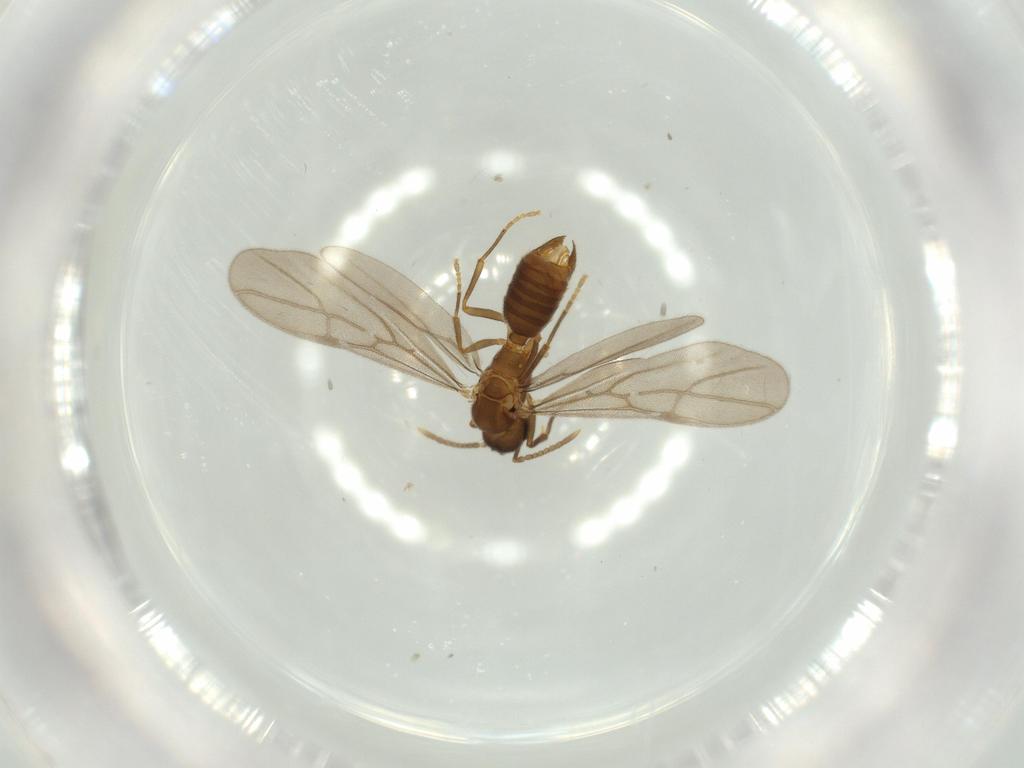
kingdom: Animalia
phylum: Arthropoda
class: Insecta
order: Hymenoptera
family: Formicidae
